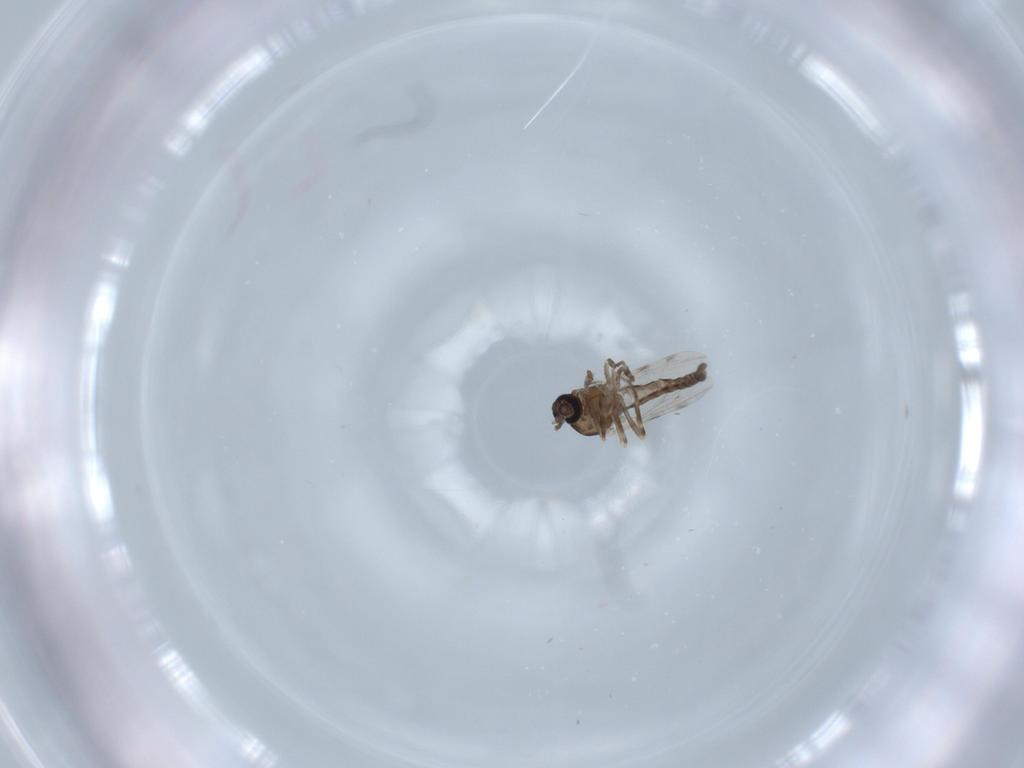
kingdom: Animalia
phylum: Arthropoda
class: Insecta
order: Diptera
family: Ceratopogonidae
